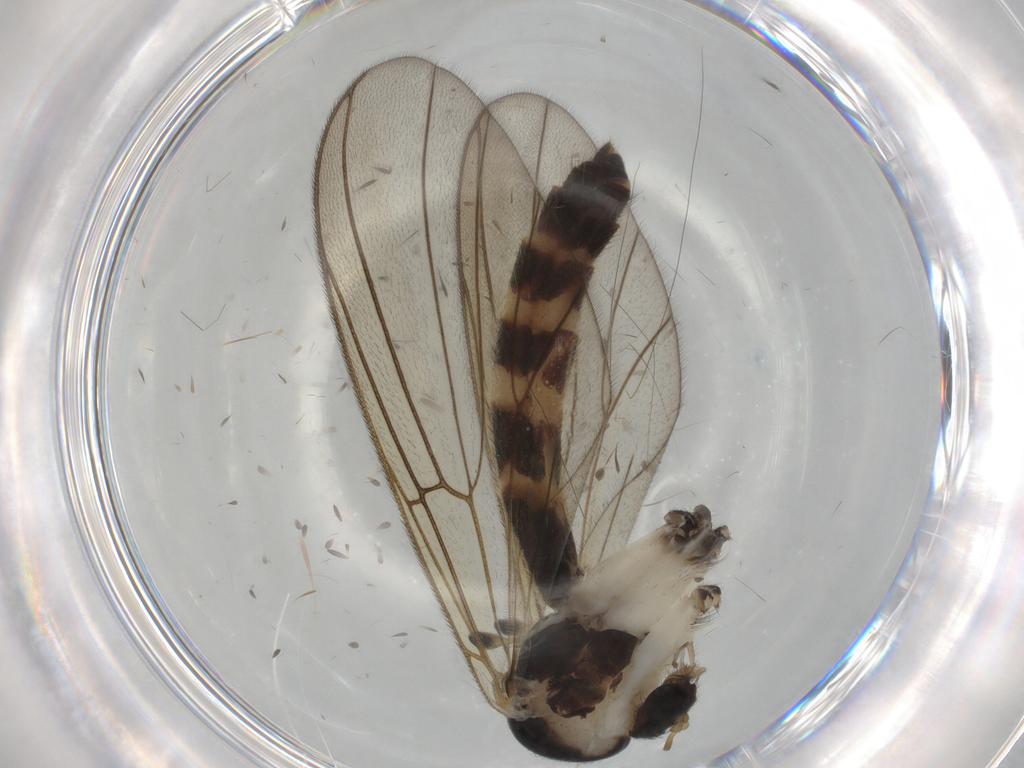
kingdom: Animalia
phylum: Arthropoda
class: Insecta
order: Diptera
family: Mycetophilidae
